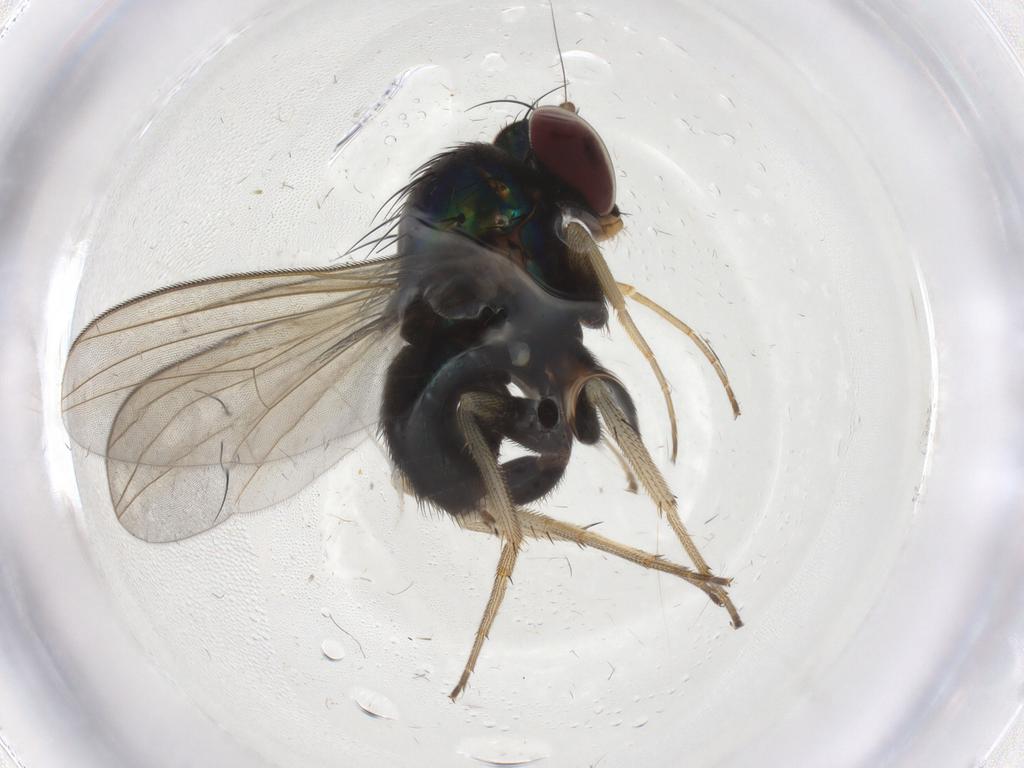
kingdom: Animalia
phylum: Arthropoda
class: Insecta
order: Diptera
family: Dolichopodidae
